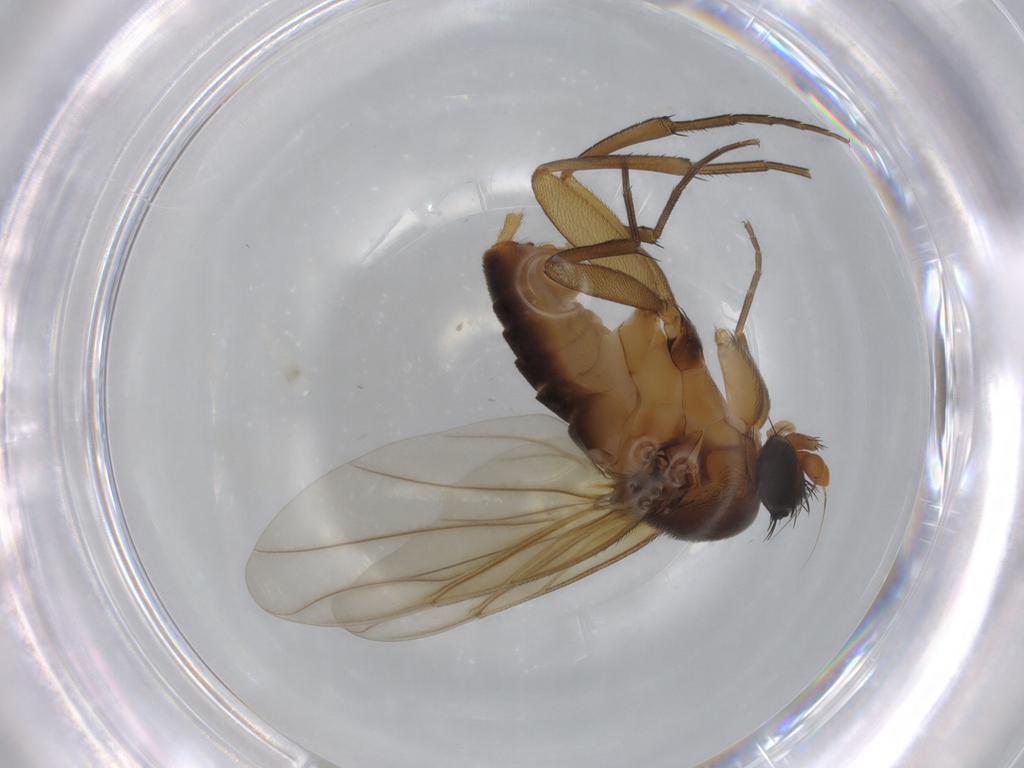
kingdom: Animalia
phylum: Arthropoda
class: Insecta
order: Diptera
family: Phoridae
